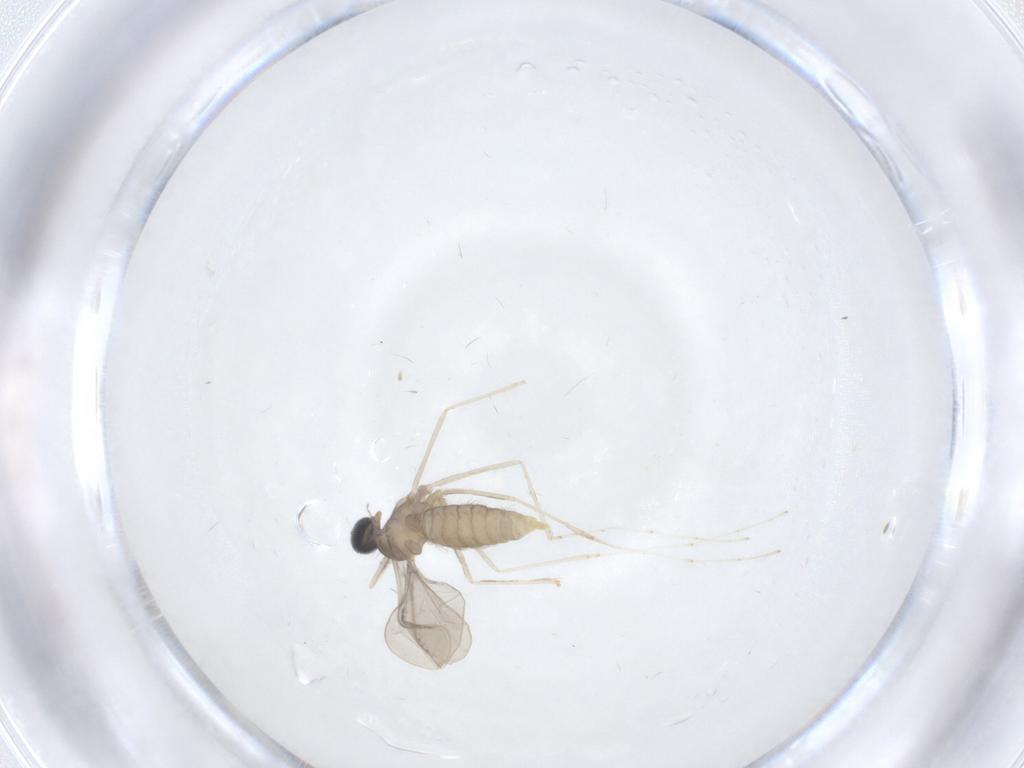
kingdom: Animalia
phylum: Arthropoda
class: Insecta
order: Diptera
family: Cecidomyiidae
